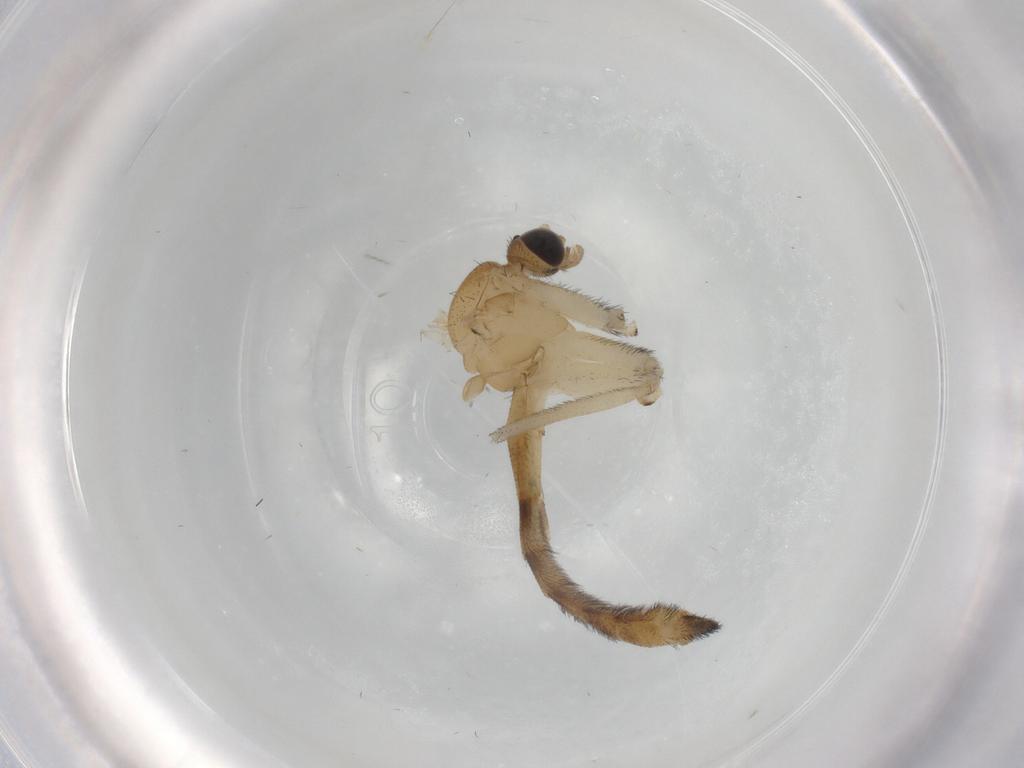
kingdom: Animalia
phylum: Arthropoda
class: Insecta
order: Diptera
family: Keroplatidae
